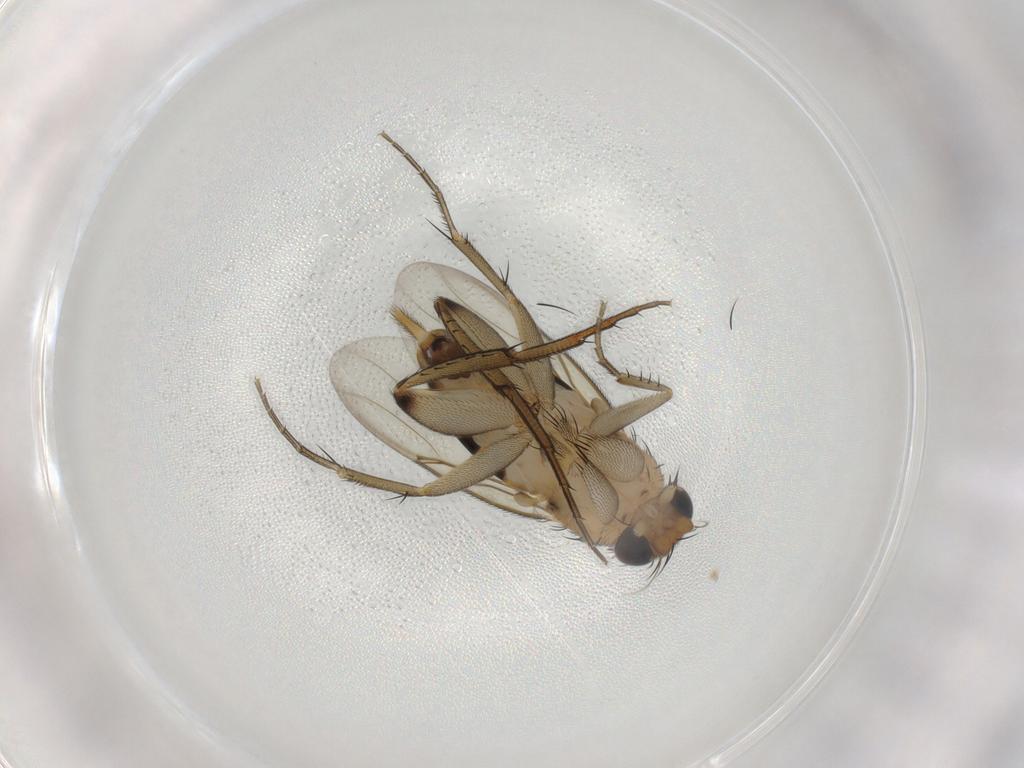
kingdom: Animalia
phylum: Arthropoda
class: Insecta
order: Diptera
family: Phoridae
